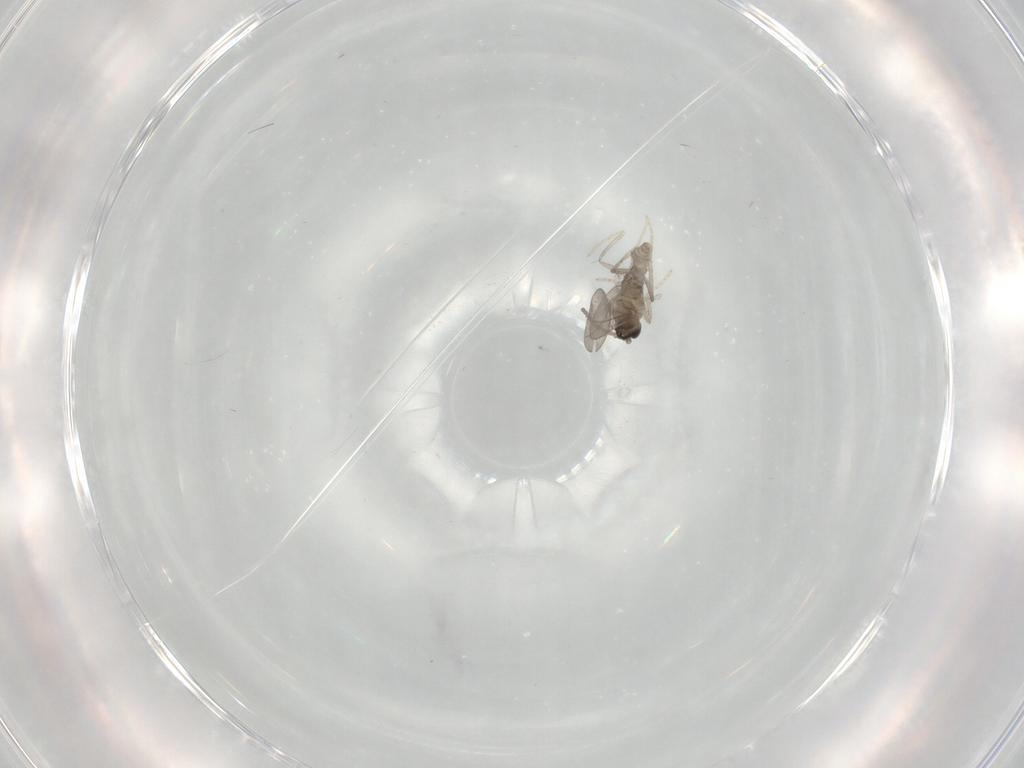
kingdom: Animalia
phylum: Arthropoda
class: Insecta
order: Diptera
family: Cecidomyiidae
